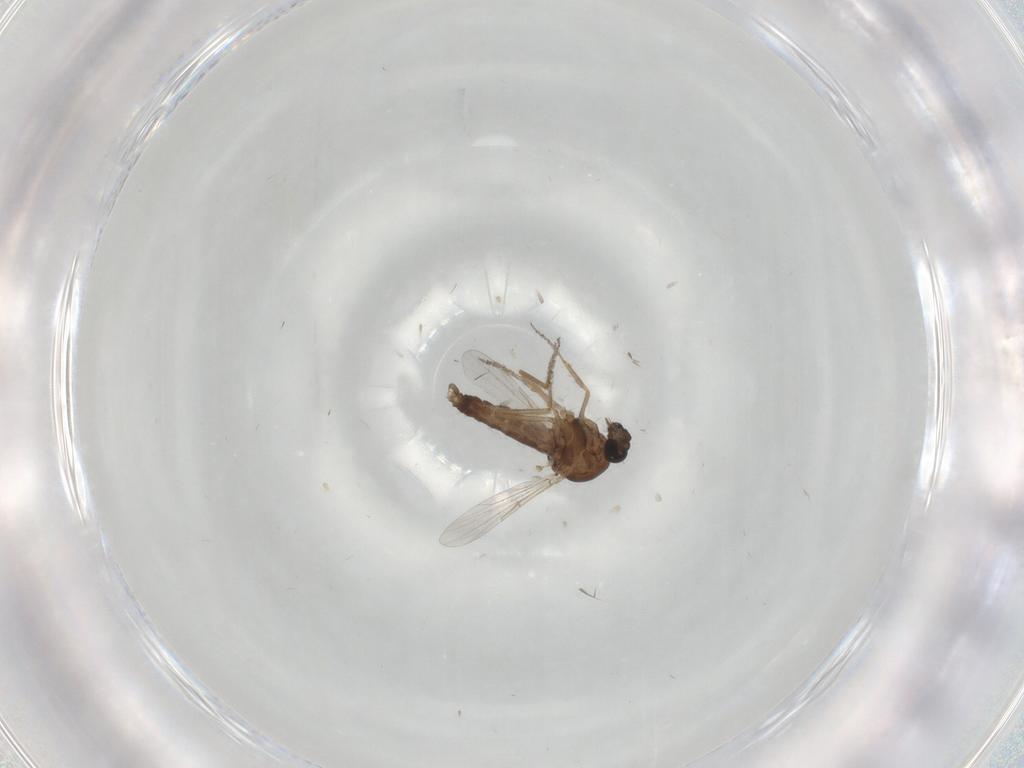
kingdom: Animalia
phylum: Arthropoda
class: Insecta
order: Diptera
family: Ceratopogonidae
